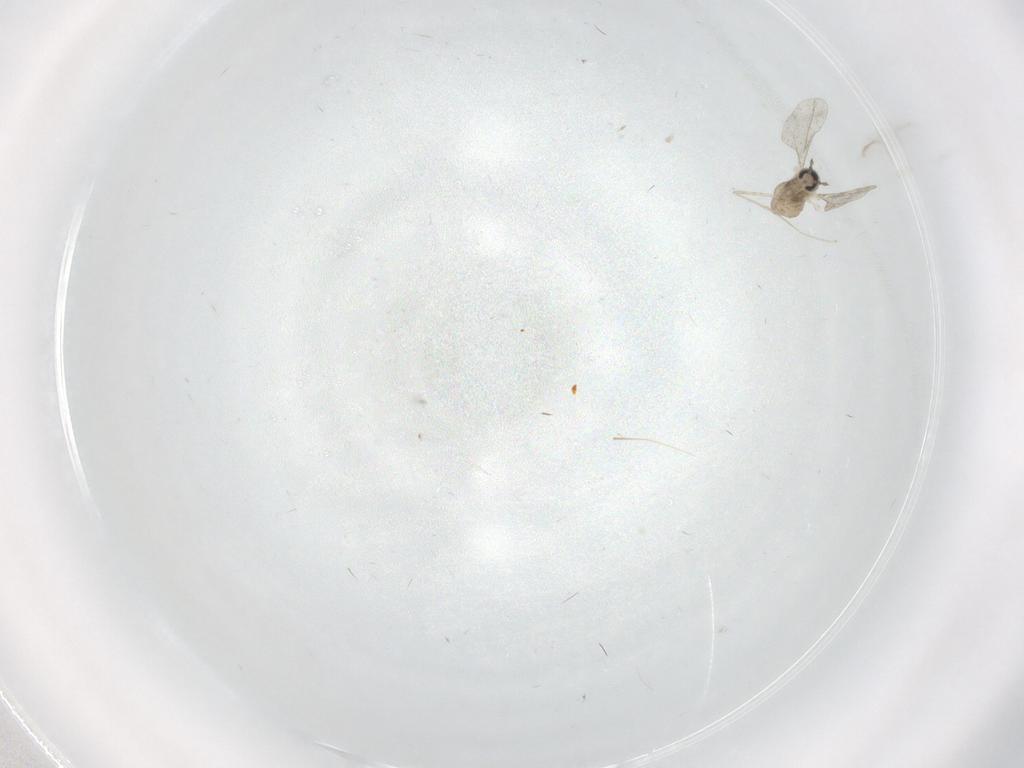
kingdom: Animalia
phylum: Arthropoda
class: Insecta
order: Diptera
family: Cecidomyiidae
